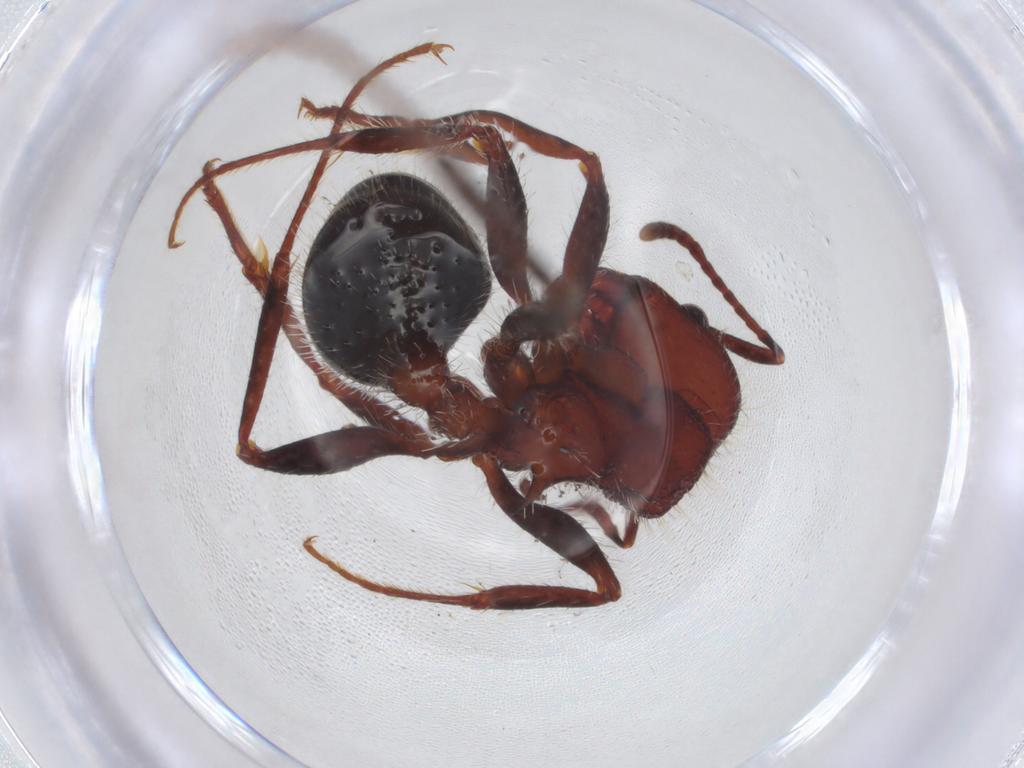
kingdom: Animalia
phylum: Arthropoda
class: Insecta
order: Hymenoptera
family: Formicidae
